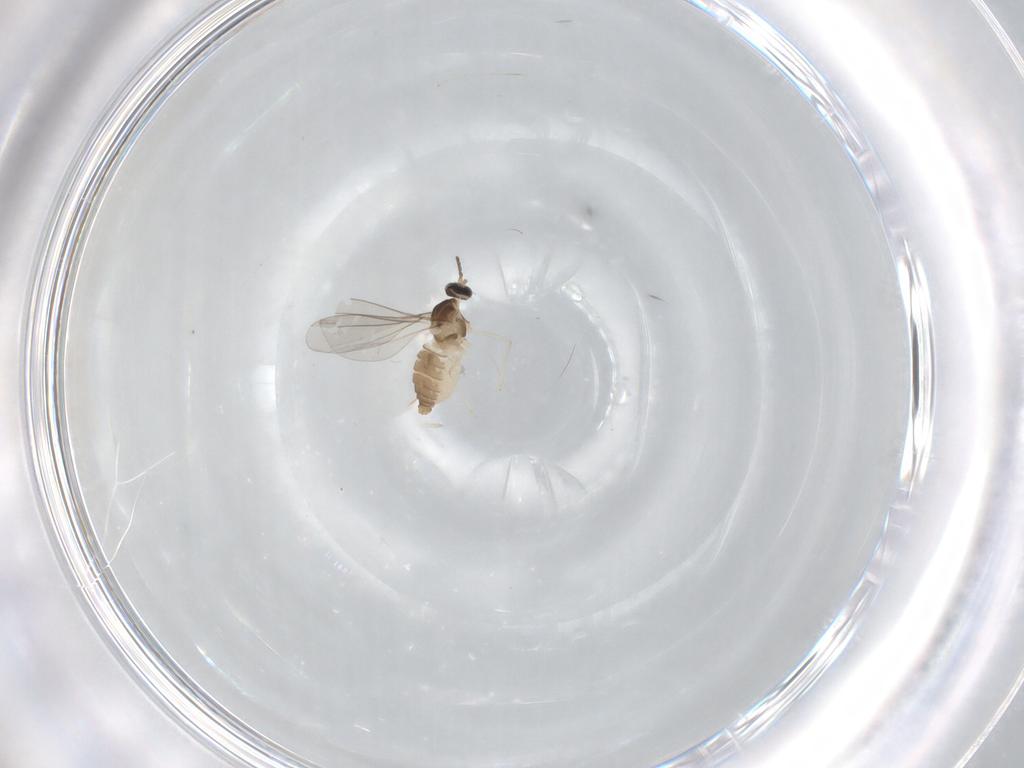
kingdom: Animalia
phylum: Arthropoda
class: Insecta
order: Diptera
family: Cecidomyiidae
